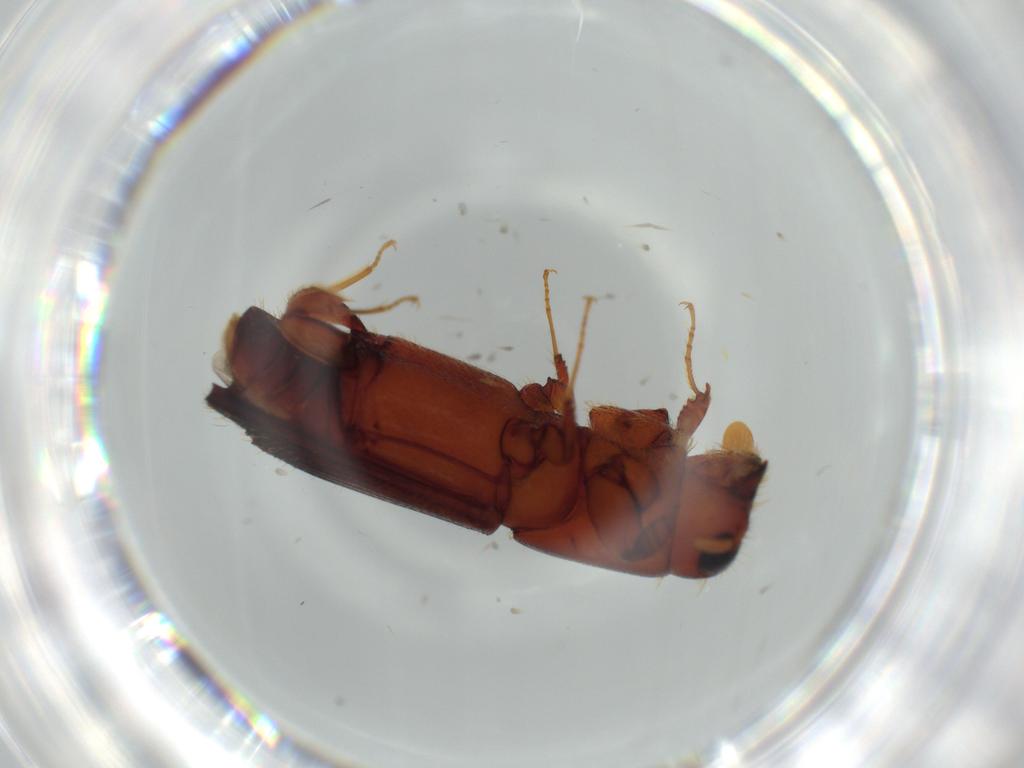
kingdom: Animalia
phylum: Arthropoda
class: Insecta
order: Coleoptera
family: Curculionidae
